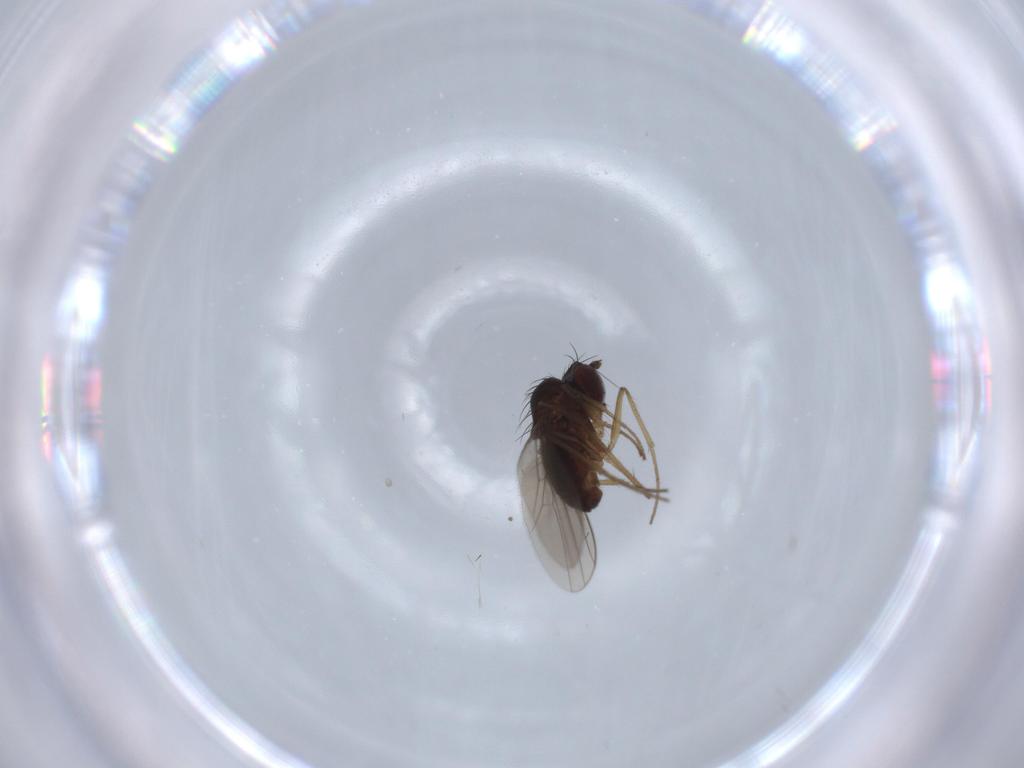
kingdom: Animalia
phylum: Arthropoda
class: Insecta
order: Diptera
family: Dolichopodidae
